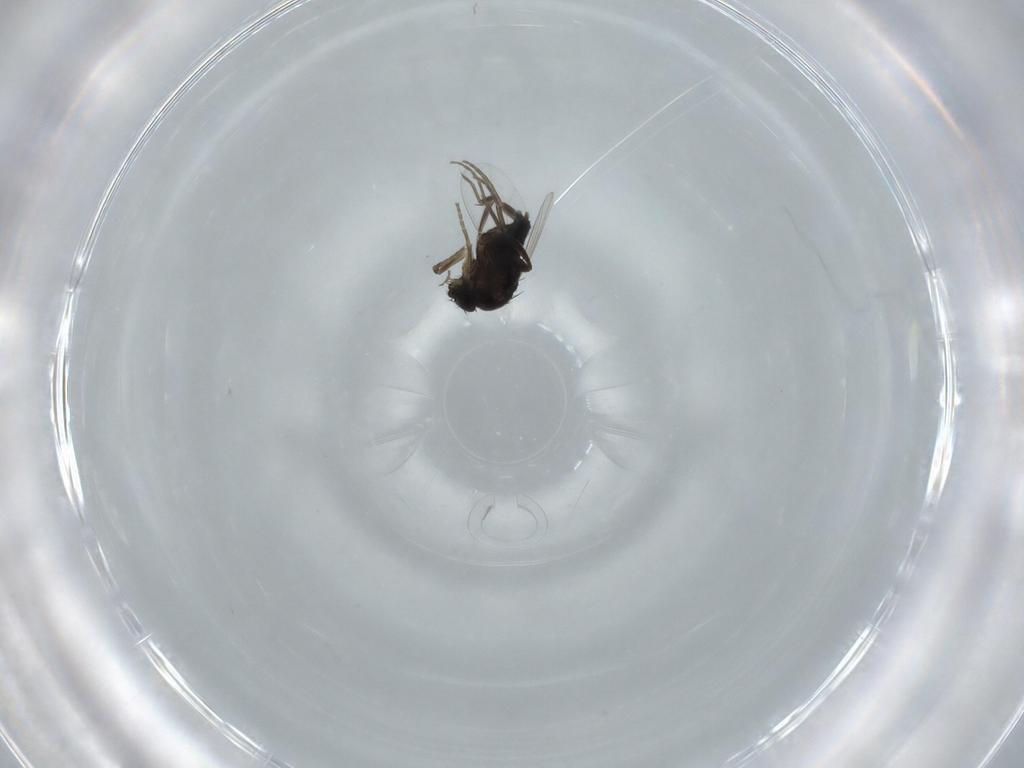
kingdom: Animalia
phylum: Arthropoda
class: Insecta
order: Diptera
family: Phoridae
